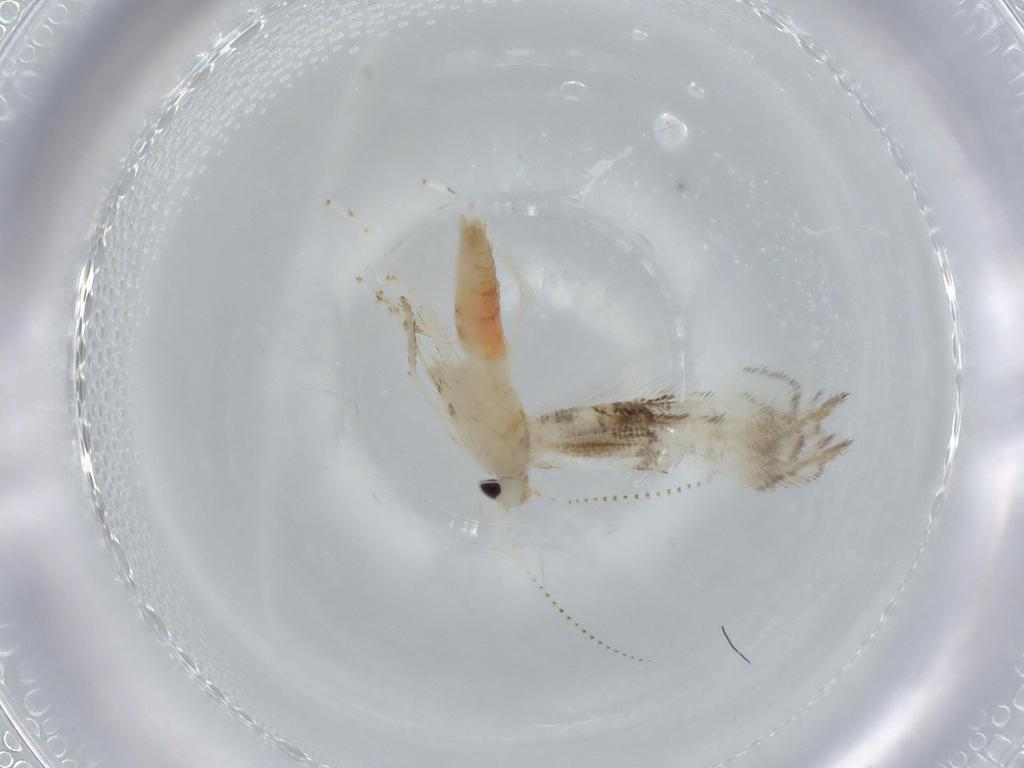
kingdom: Animalia
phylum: Arthropoda
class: Insecta
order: Lepidoptera
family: Gracillariidae
